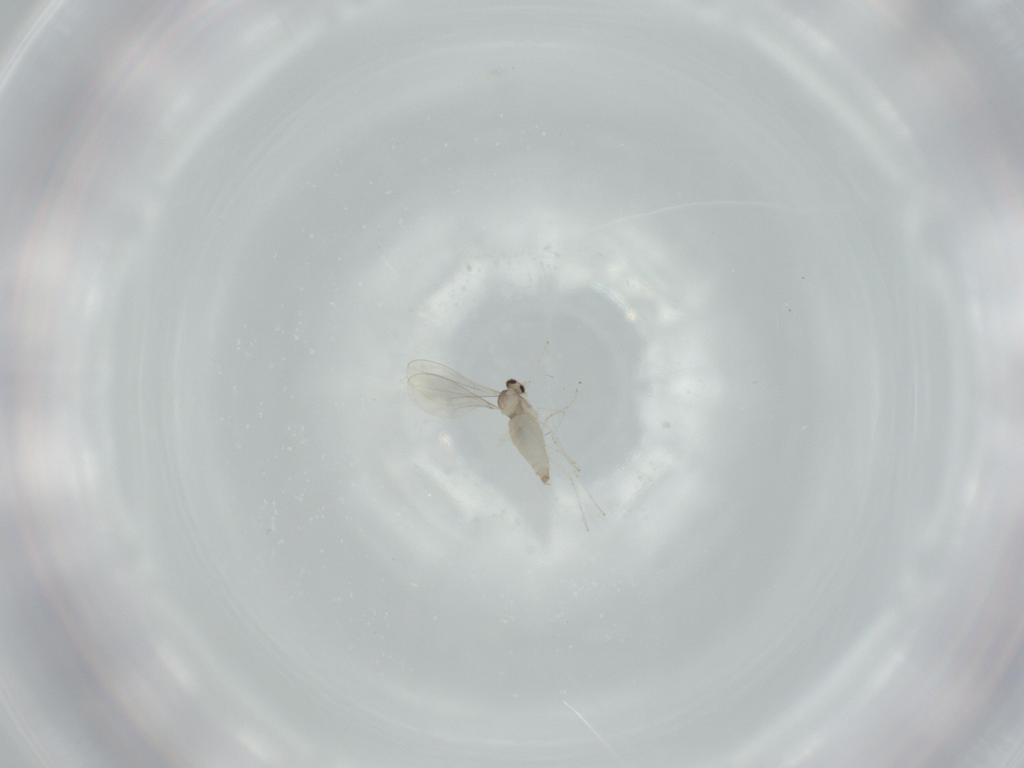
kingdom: Animalia
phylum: Arthropoda
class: Insecta
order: Diptera
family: Cecidomyiidae
